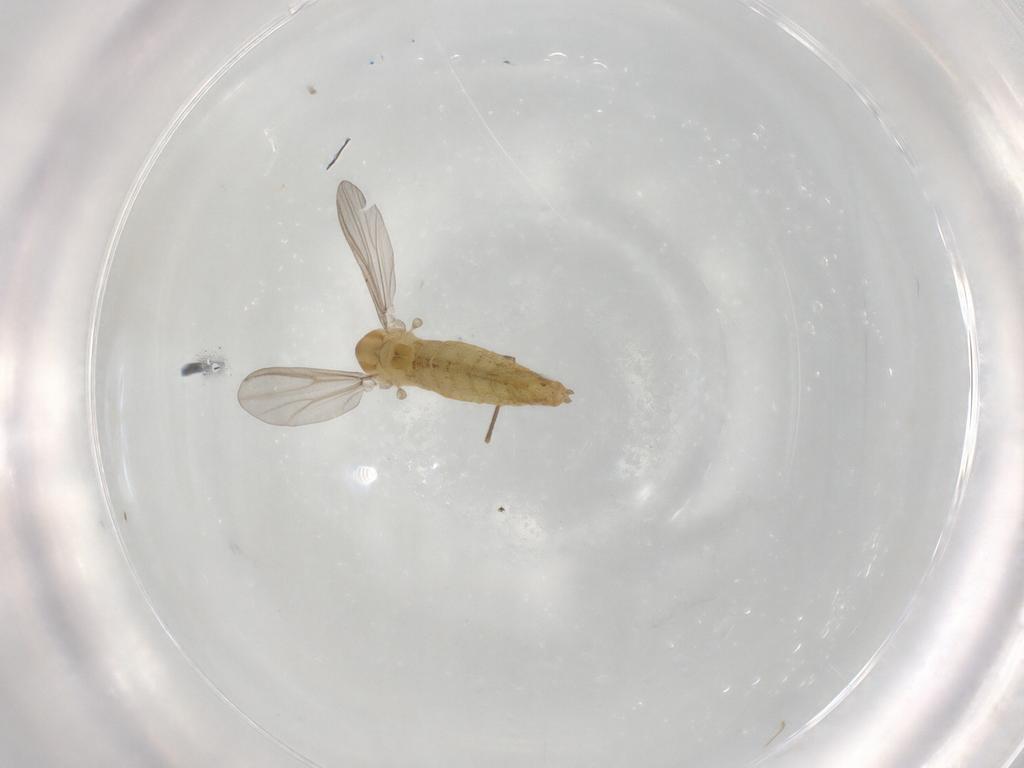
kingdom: Animalia
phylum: Arthropoda
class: Insecta
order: Diptera
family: Chironomidae
